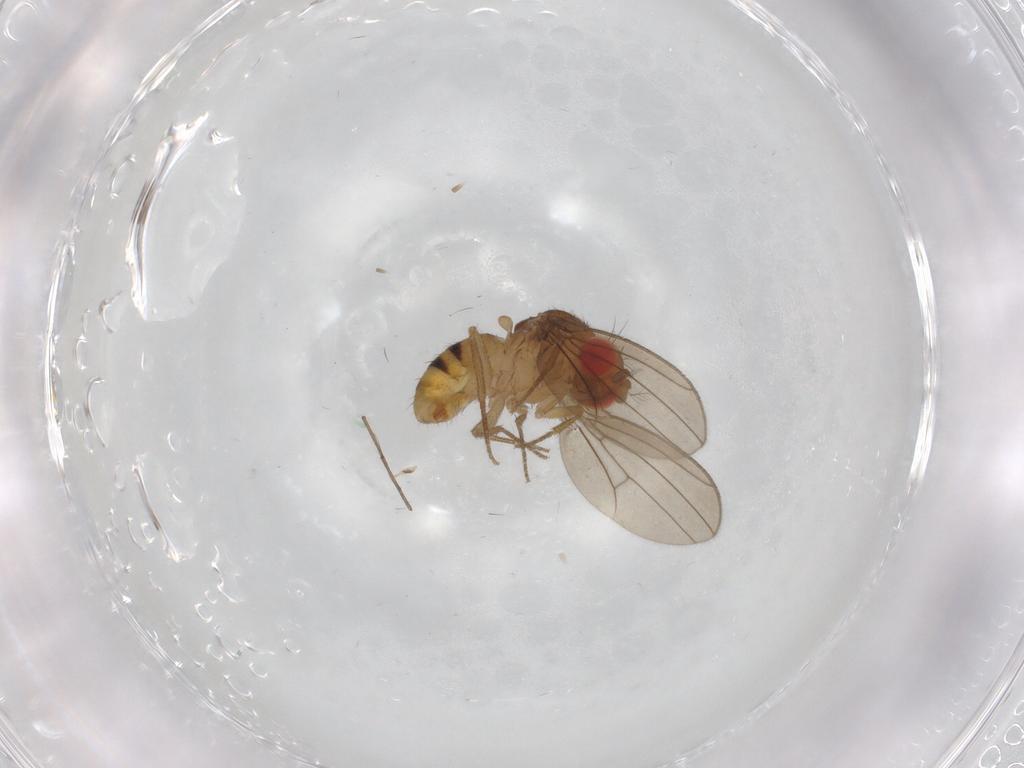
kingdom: Animalia
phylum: Arthropoda
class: Insecta
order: Diptera
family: Drosophilidae
